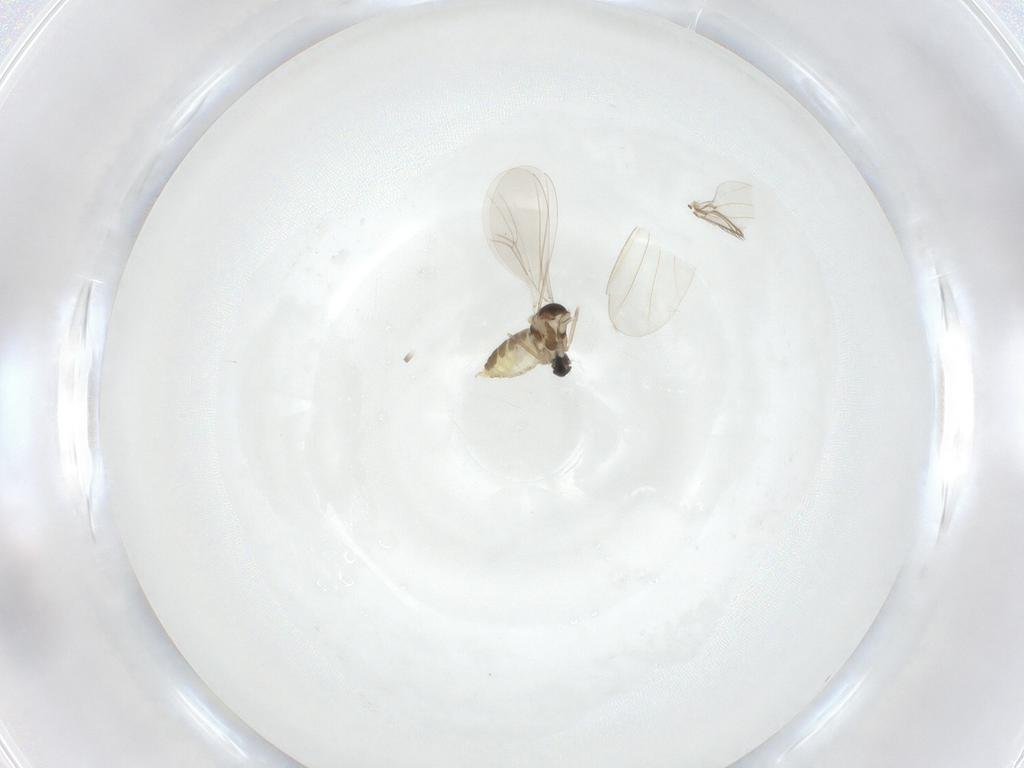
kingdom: Animalia
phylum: Arthropoda
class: Insecta
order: Diptera
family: Cecidomyiidae
